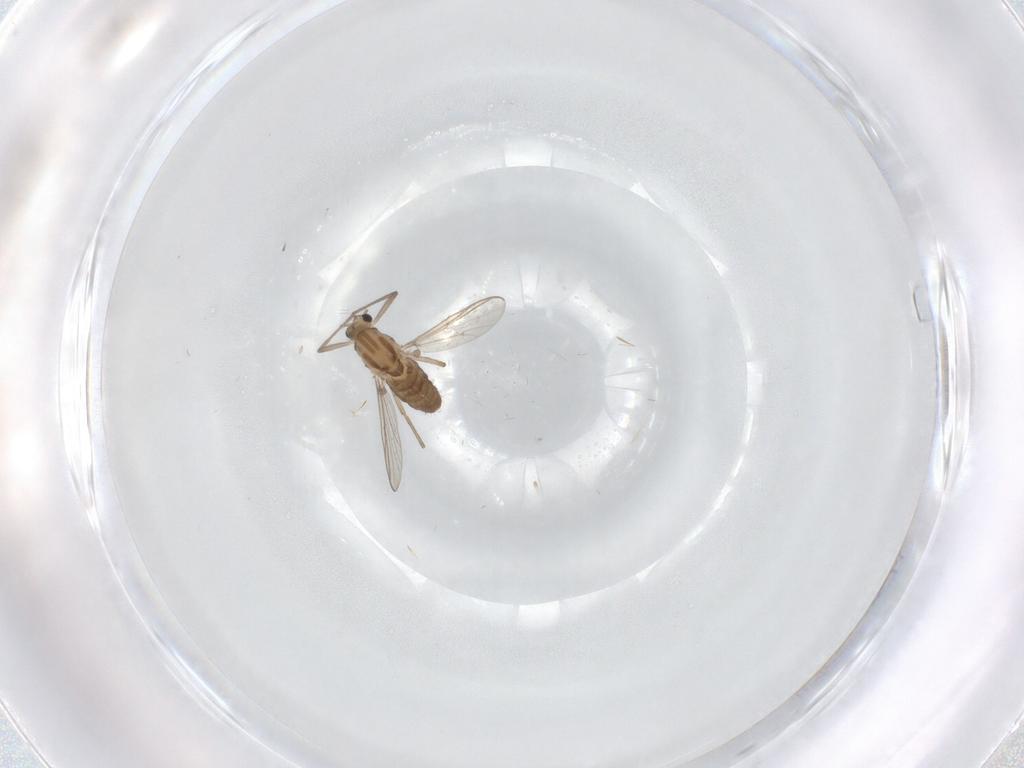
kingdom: Animalia
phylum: Arthropoda
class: Insecta
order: Diptera
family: Chironomidae
